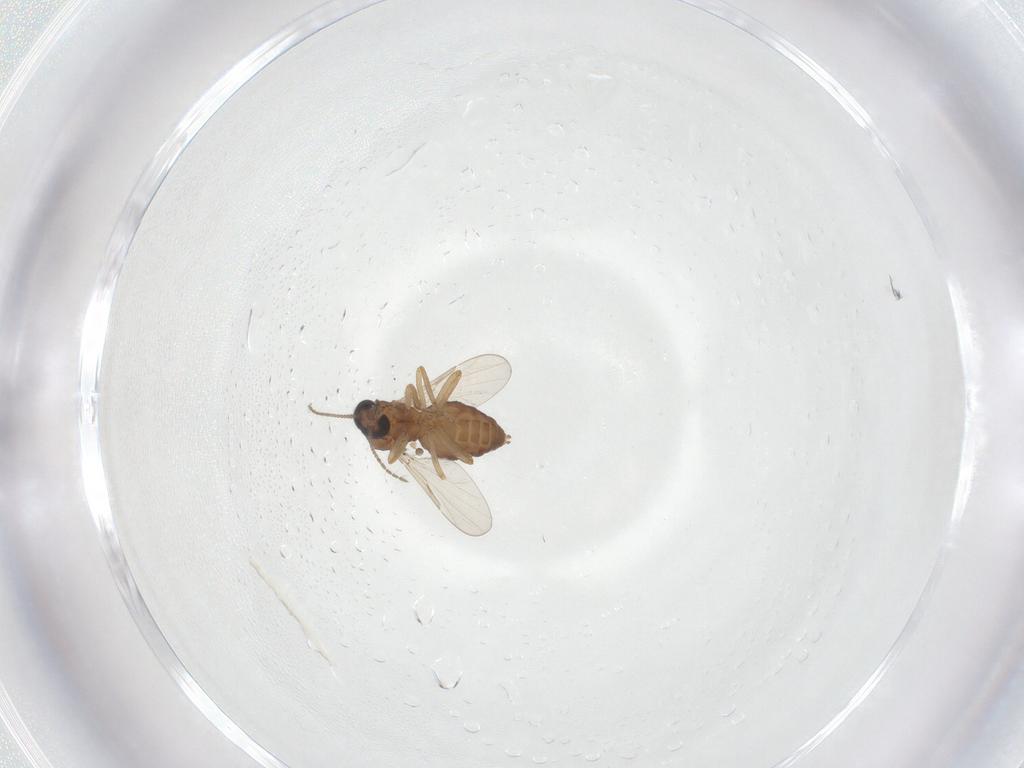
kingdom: Animalia
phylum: Arthropoda
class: Insecta
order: Diptera
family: Ceratopogonidae
